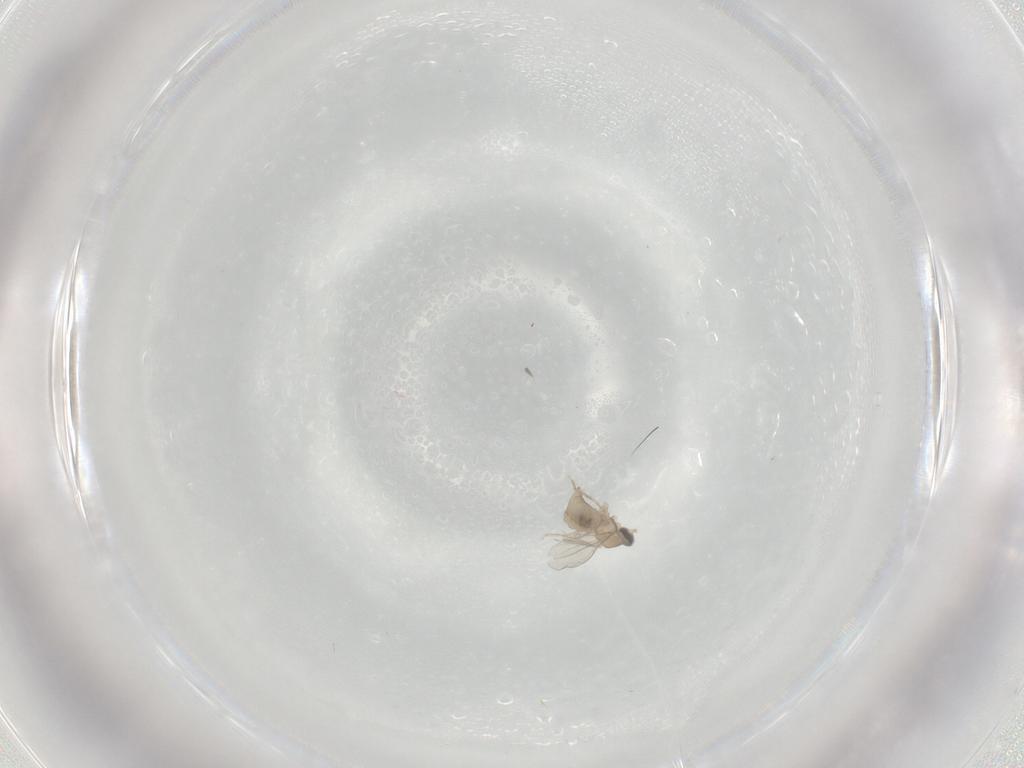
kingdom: Animalia
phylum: Arthropoda
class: Insecta
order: Diptera
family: Cecidomyiidae
